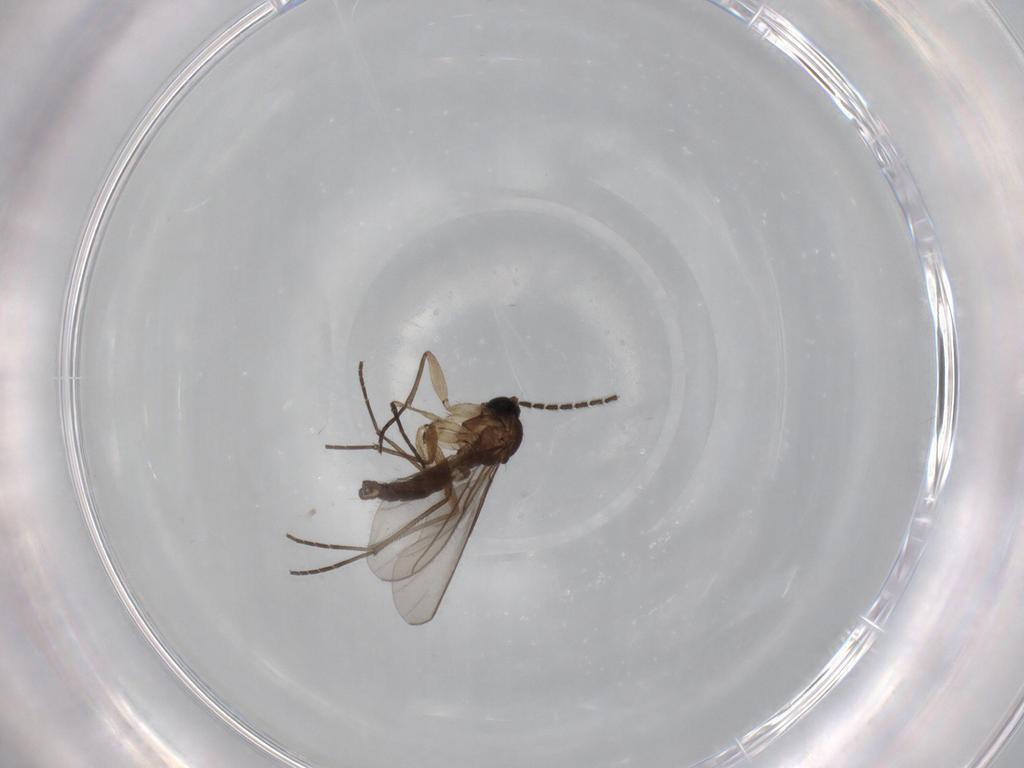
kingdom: Animalia
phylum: Arthropoda
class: Insecta
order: Diptera
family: Sciaridae
